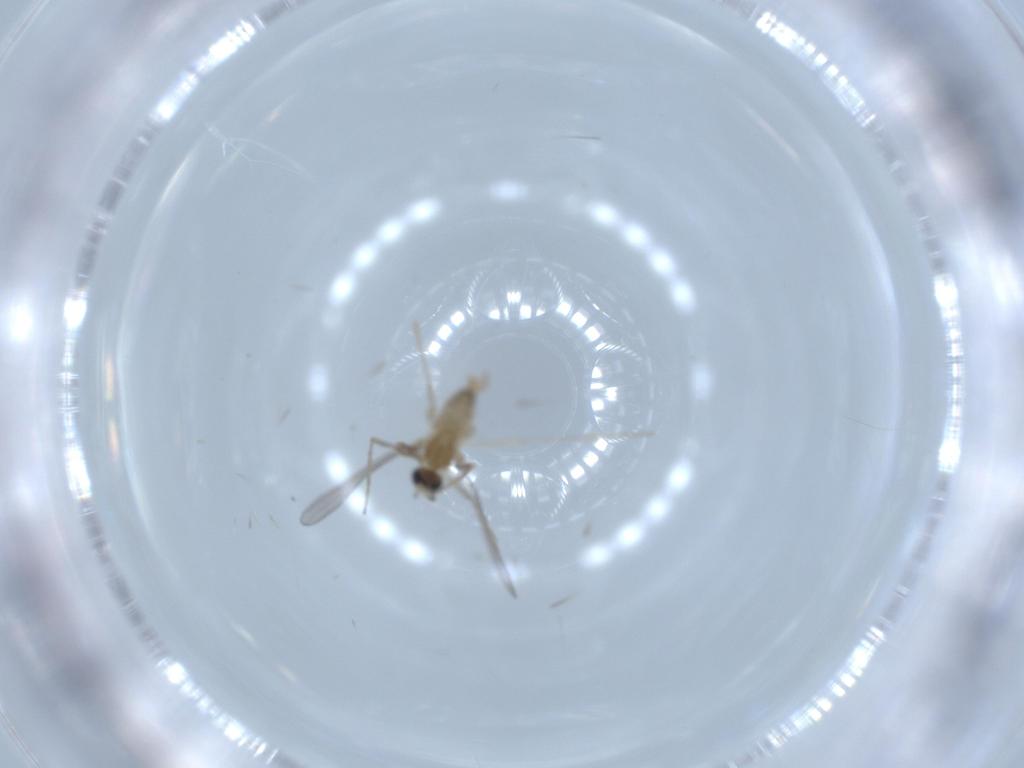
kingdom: Animalia
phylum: Arthropoda
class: Insecta
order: Diptera
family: Cecidomyiidae
